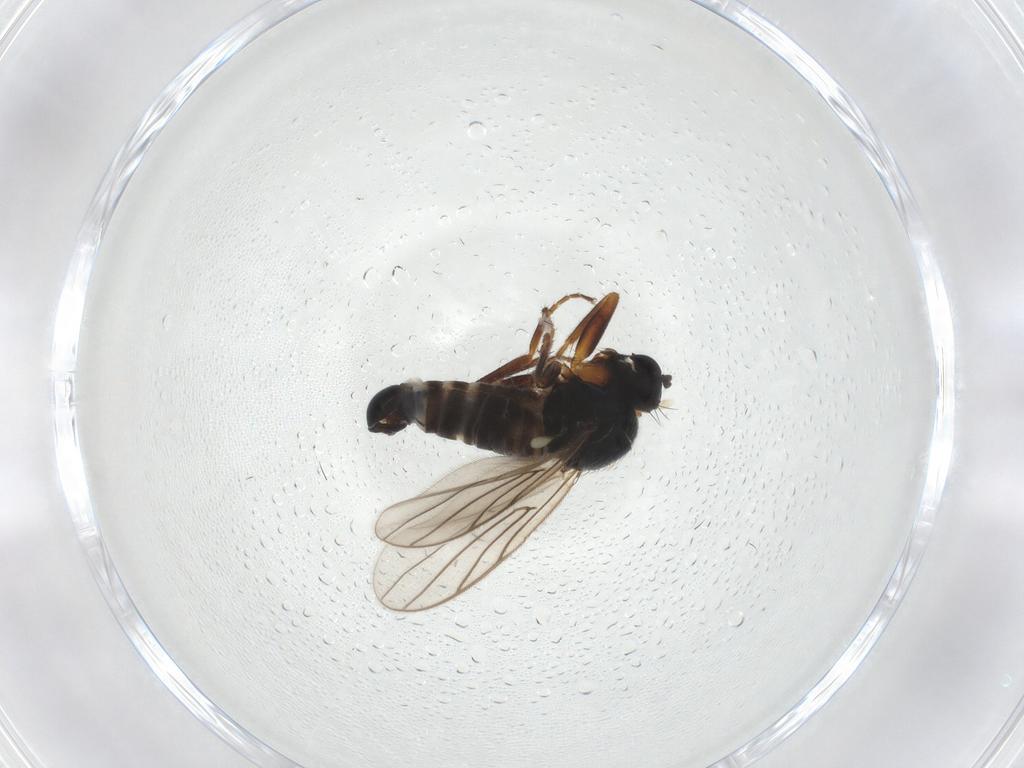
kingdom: Animalia
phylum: Arthropoda
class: Insecta
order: Diptera
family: Hybotidae
